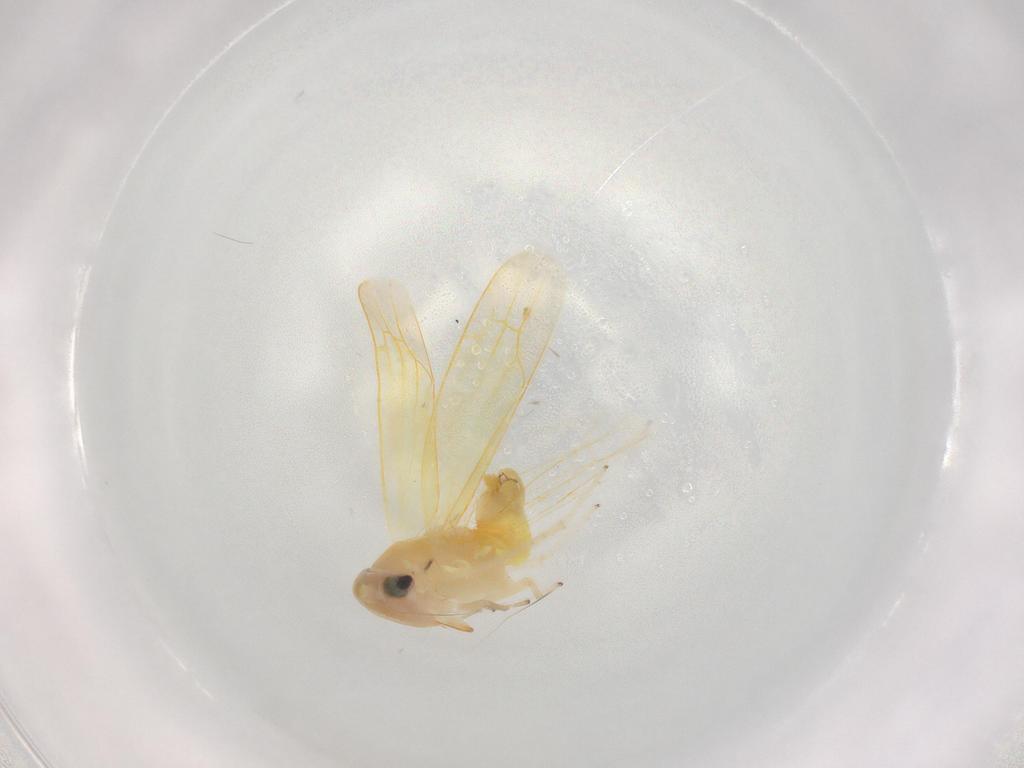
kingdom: Animalia
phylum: Arthropoda
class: Insecta
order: Hemiptera
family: Cicadellidae
